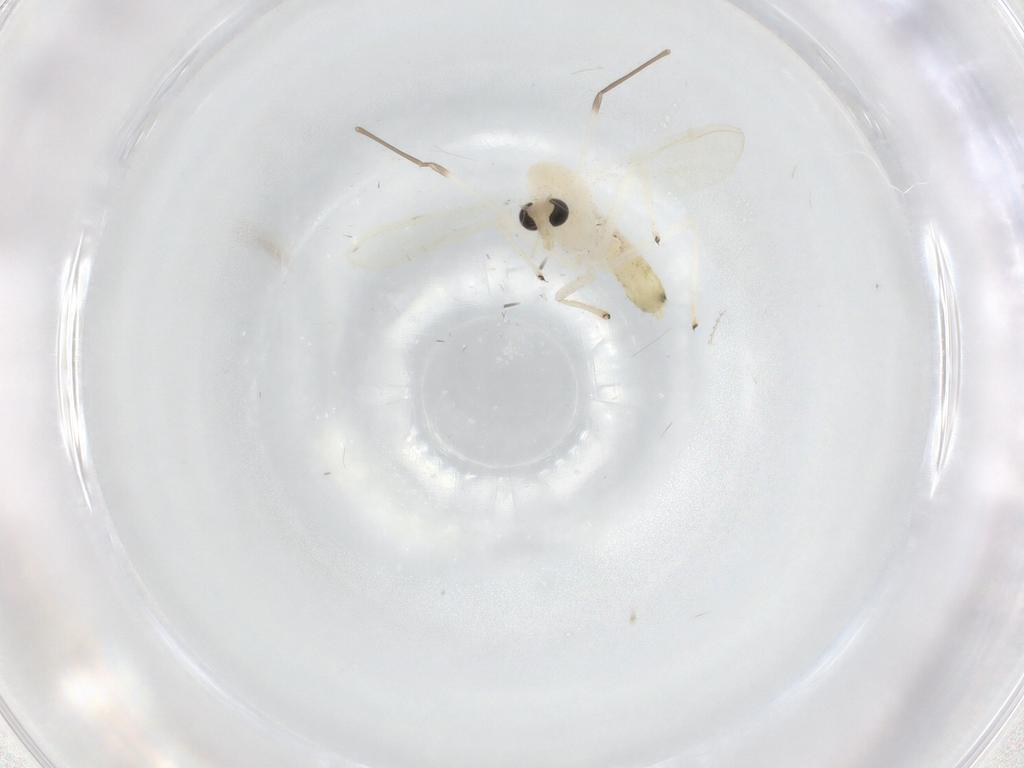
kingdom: Animalia
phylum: Arthropoda
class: Insecta
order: Diptera
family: Chironomidae
